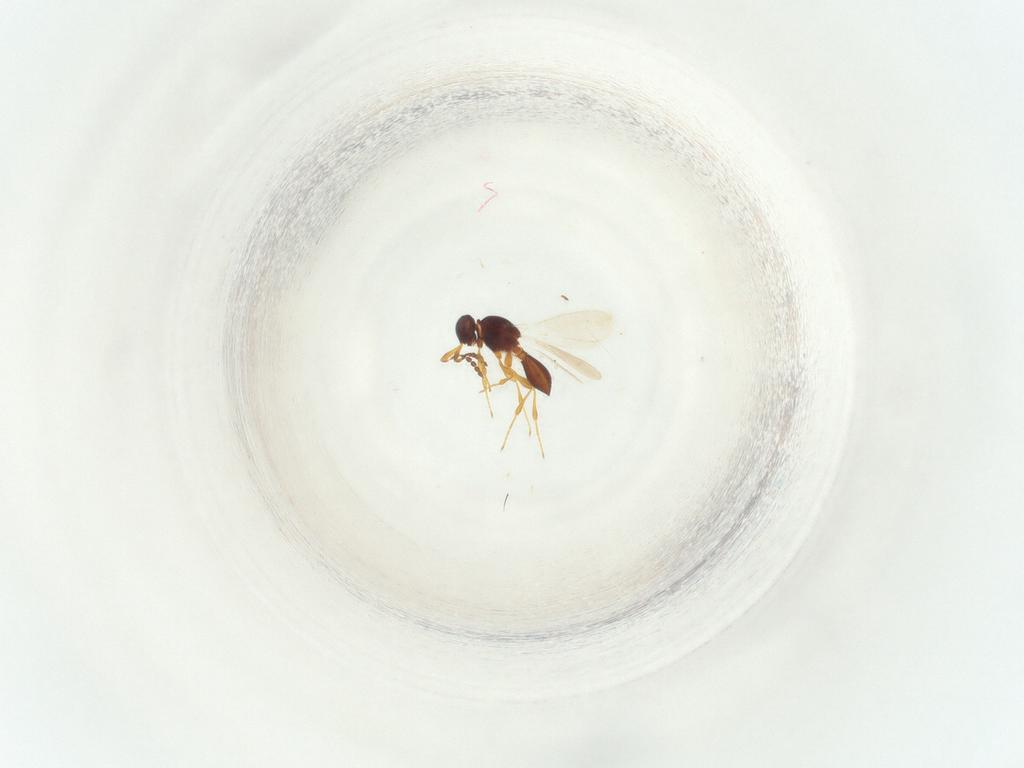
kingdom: Animalia
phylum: Arthropoda
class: Insecta
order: Hymenoptera
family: Platygastridae
